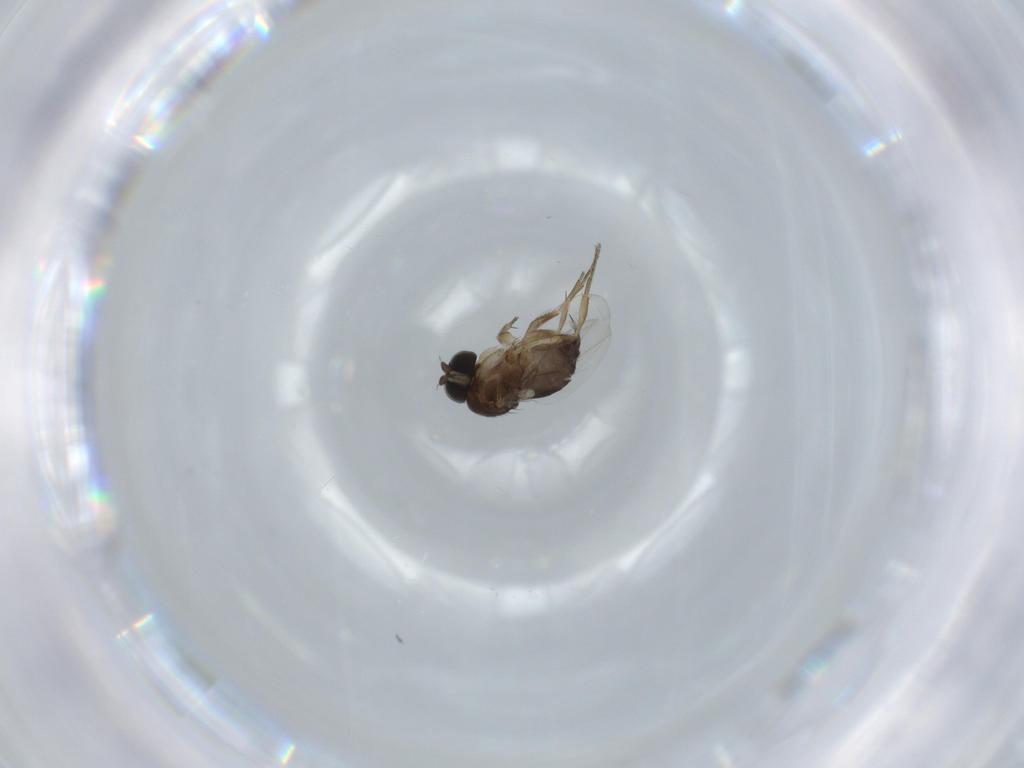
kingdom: Animalia
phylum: Arthropoda
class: Insecta
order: Diptera
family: Phoridae
